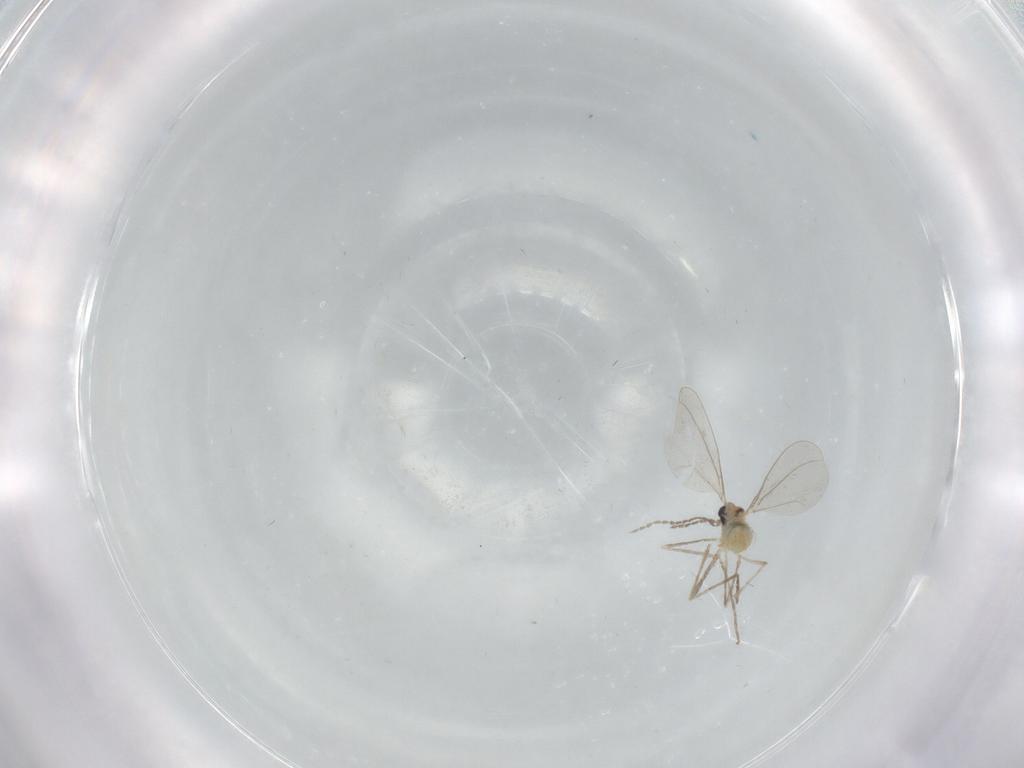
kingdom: Animalia
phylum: Arthropoda
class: Insecta
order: Diptera
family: Cecidomyiidae
